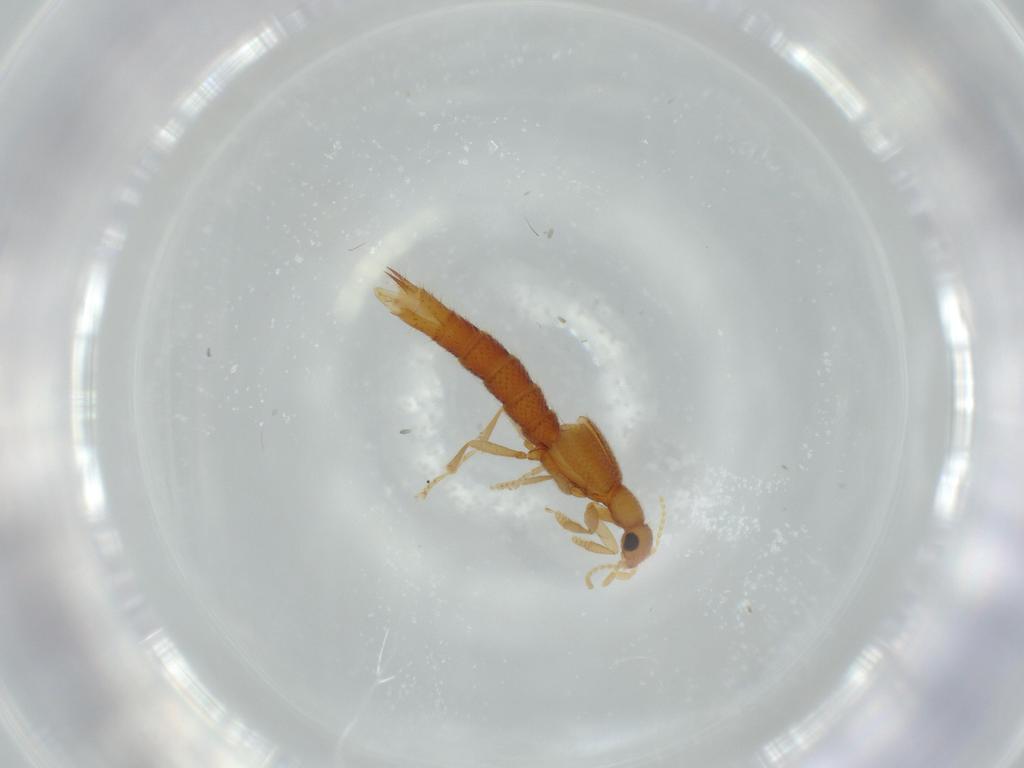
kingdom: Animalia
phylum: Arthropoda
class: Insecta
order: Coleoptera
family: Staphylinidae
